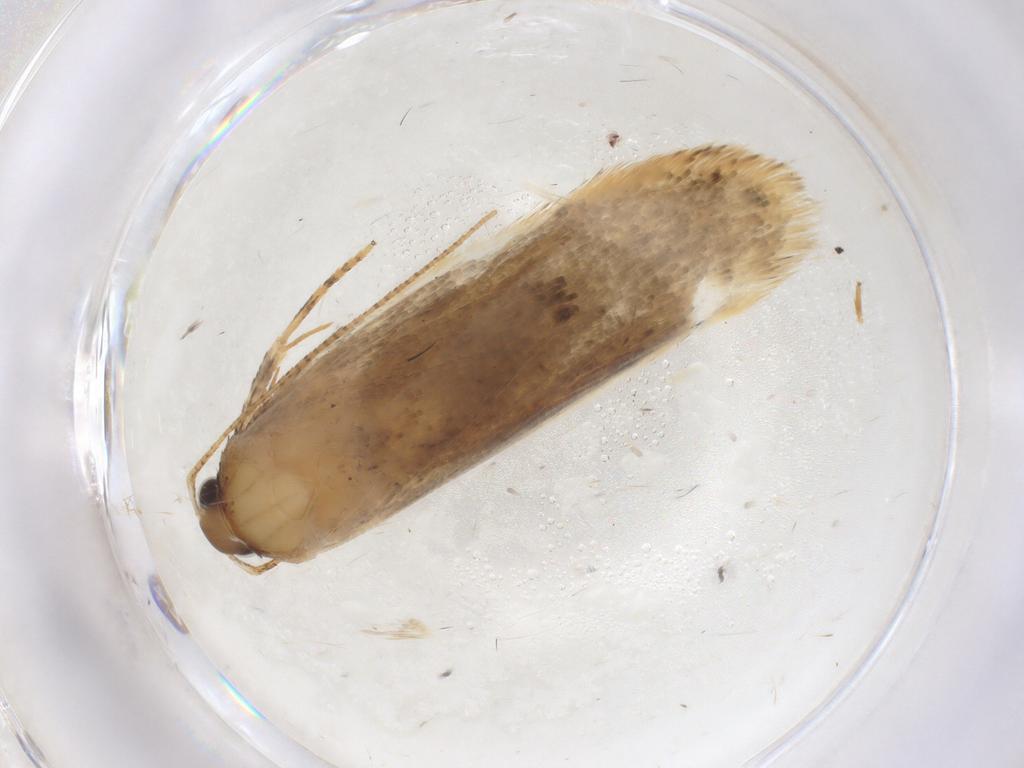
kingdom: Animalia
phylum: Arthropoda
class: Insecta
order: Lepidoptera
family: Gelechiidae
